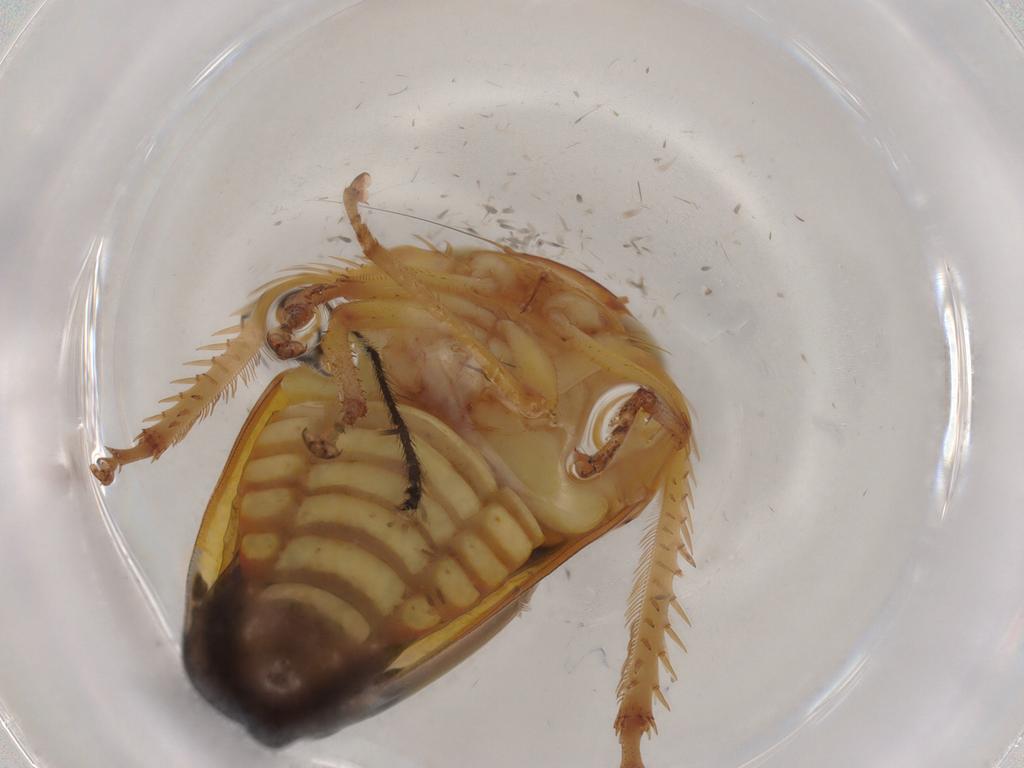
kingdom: Animalia
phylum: Arthropoda
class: Insecta
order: Hemiptera
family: Cicadellidae
